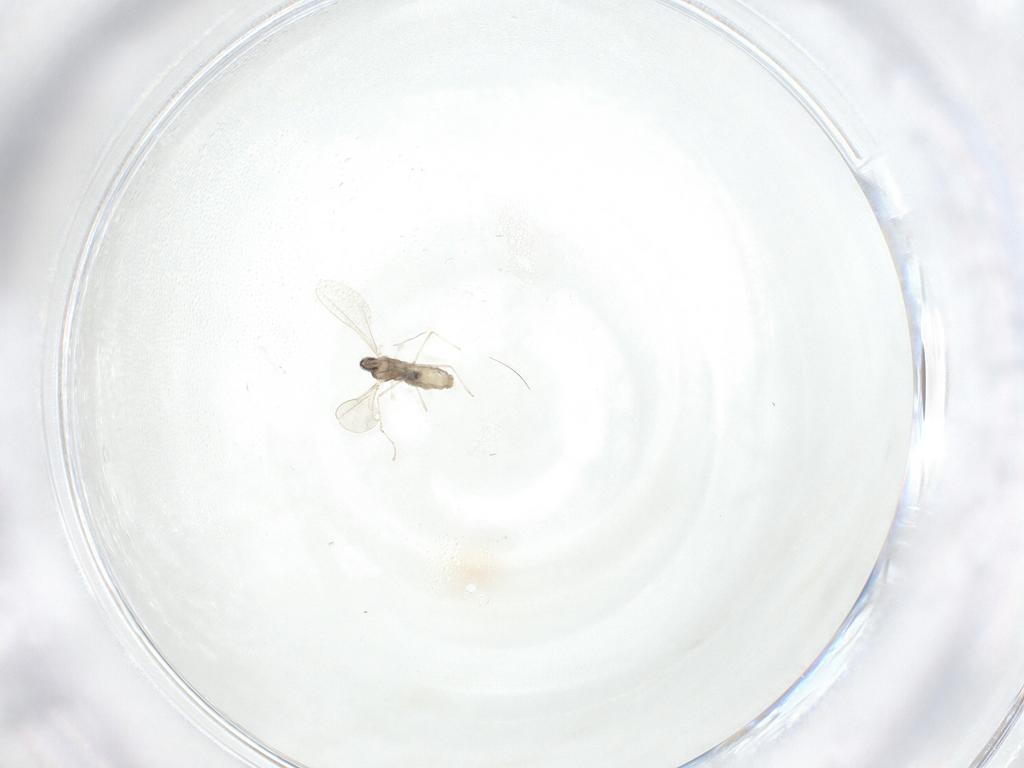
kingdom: Animalia
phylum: Arthropoda
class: Insecta
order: Diptera
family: Cecidomyiidae
